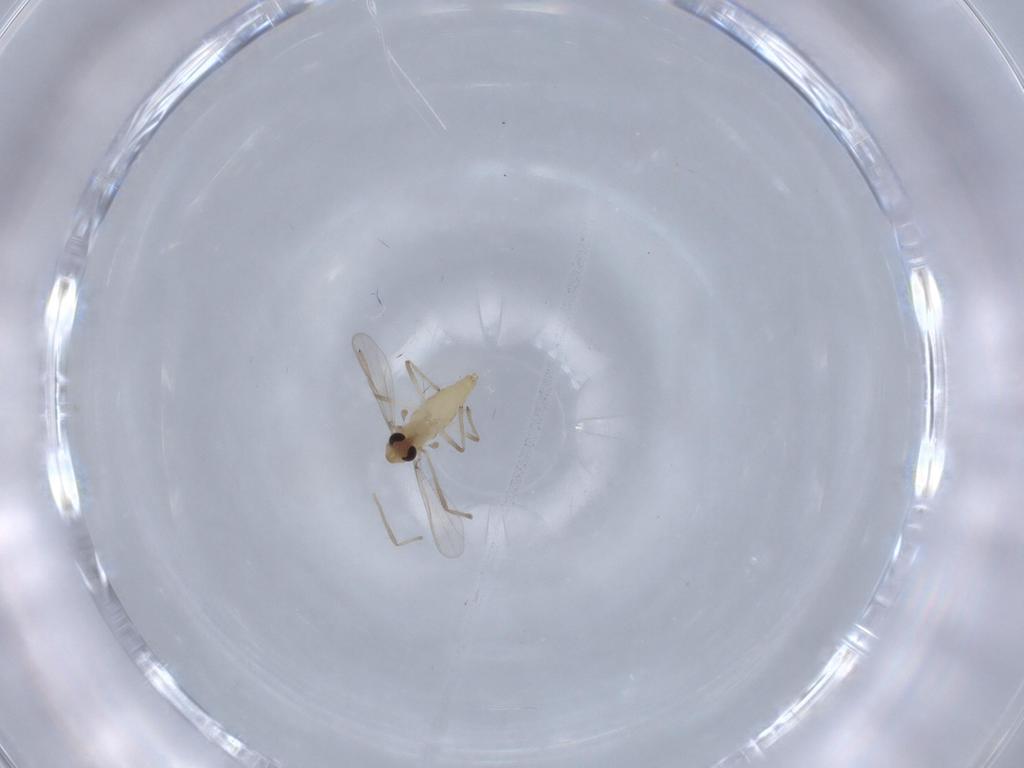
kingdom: Animalia
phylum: Arthropoda
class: Insecta
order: Diptera
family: Chironomidae
